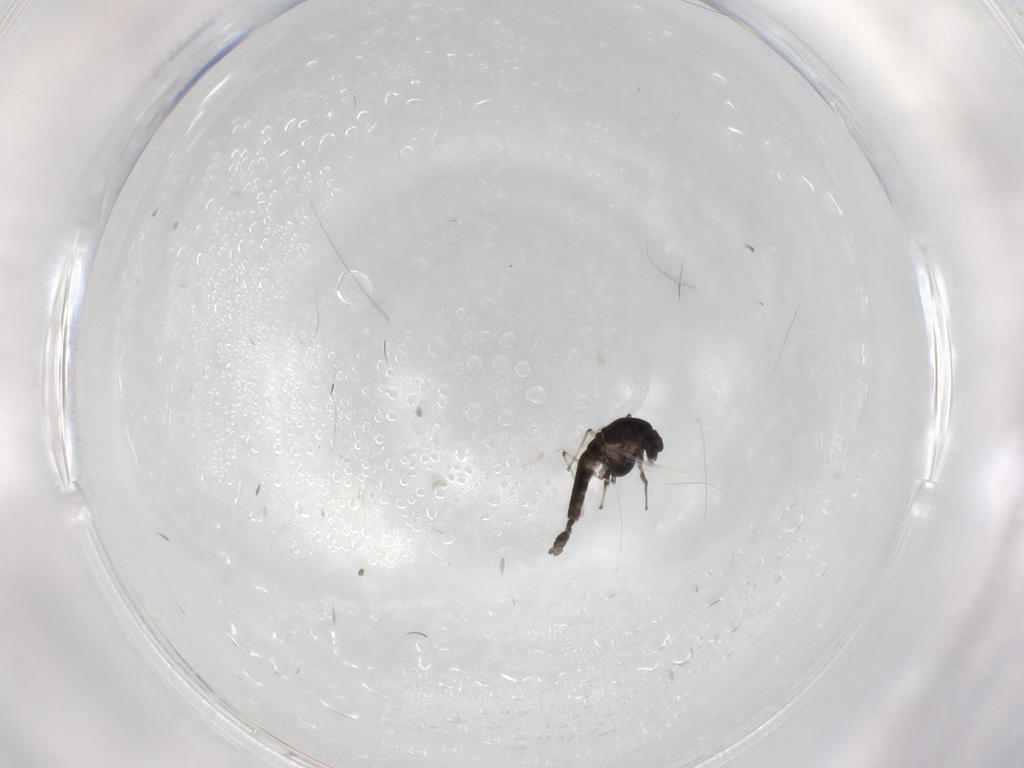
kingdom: Animalia
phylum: Arthropoda
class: Insecta
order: Diptera
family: Chironomidae
